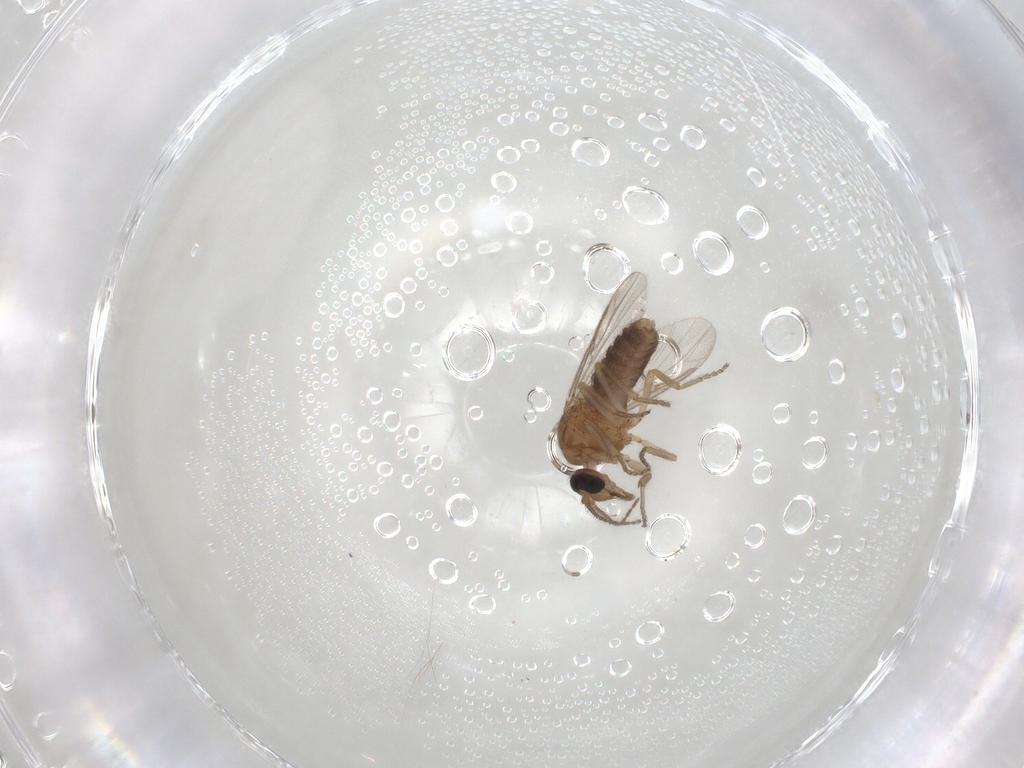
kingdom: Animalia
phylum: Arthropoda
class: Insecta
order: Diptera
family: Ceratopogonidae
